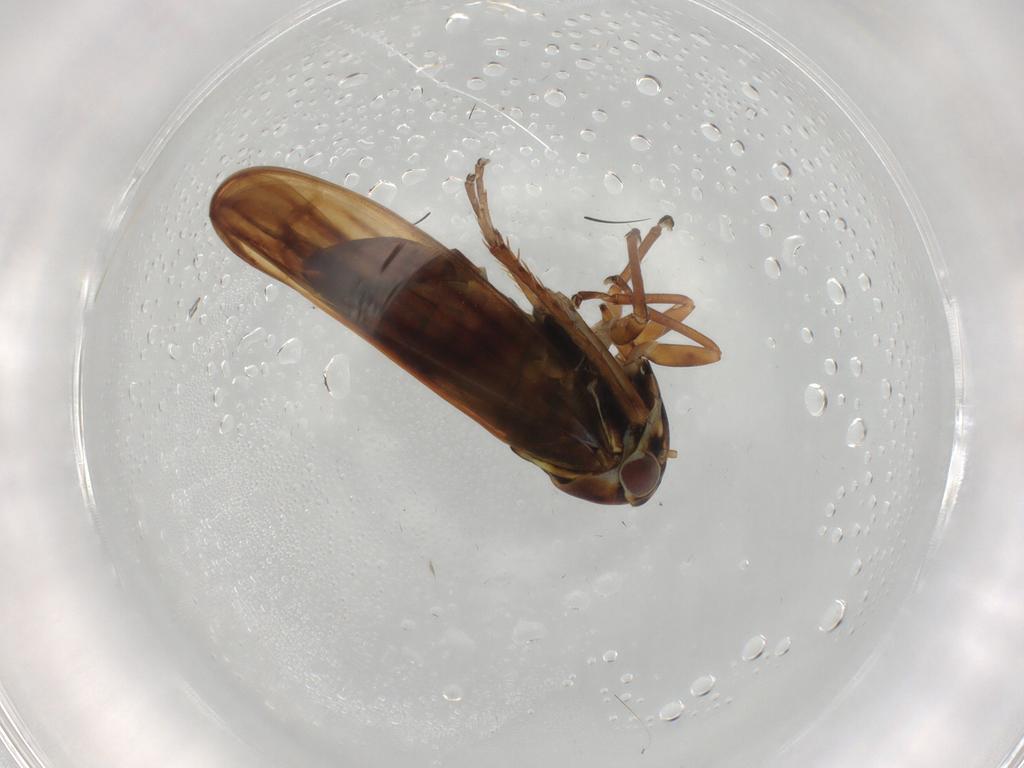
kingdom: Animalia
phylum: Arthropoda
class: Insecta
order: Hemiptera
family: Cicadellidae
